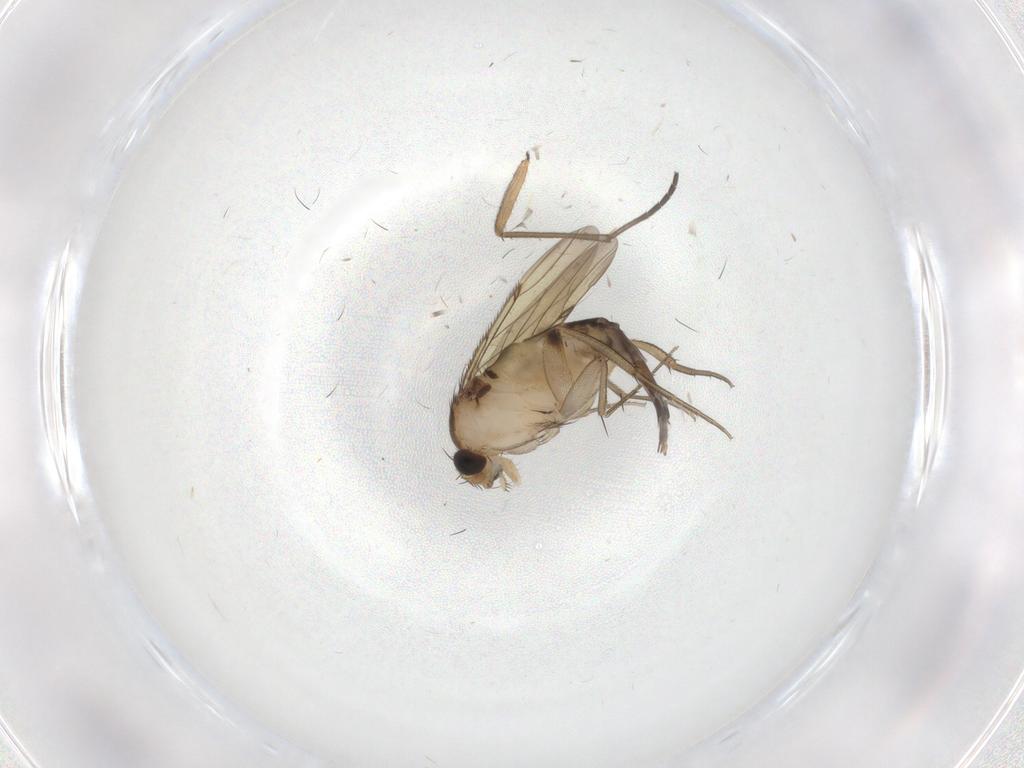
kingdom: Animalia
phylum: Arthropoda
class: Insecta
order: Diptera
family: Phoridae
